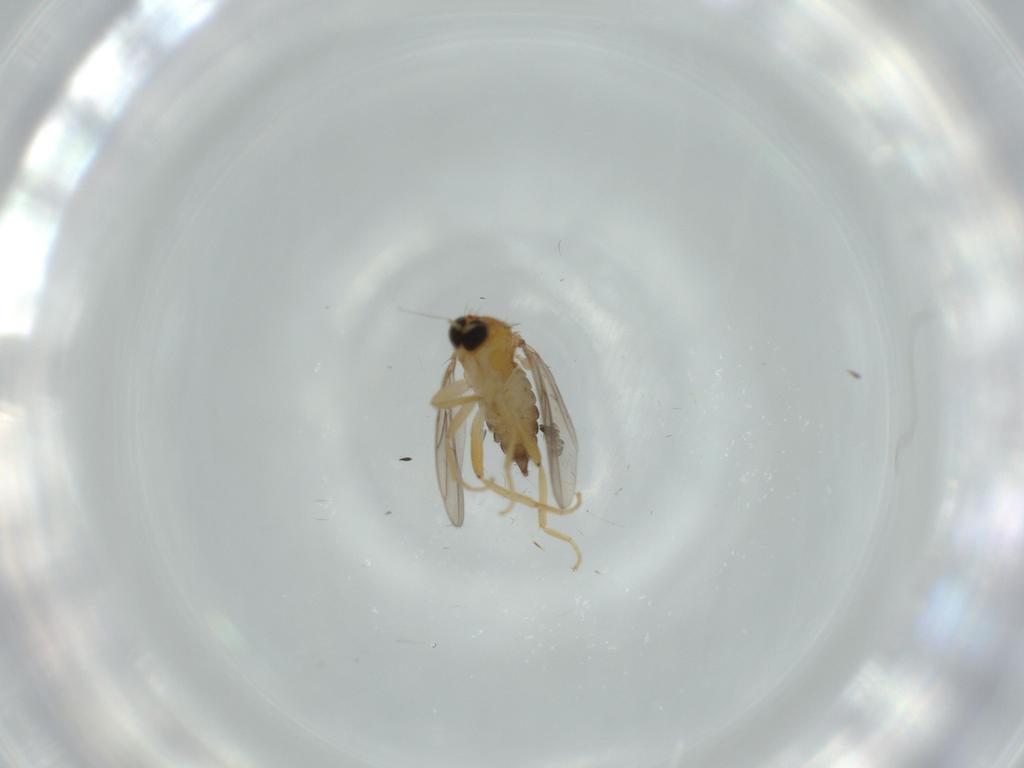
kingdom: Animalia
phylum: Arthropoda
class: Insecta
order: Diptera
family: Phoridae
